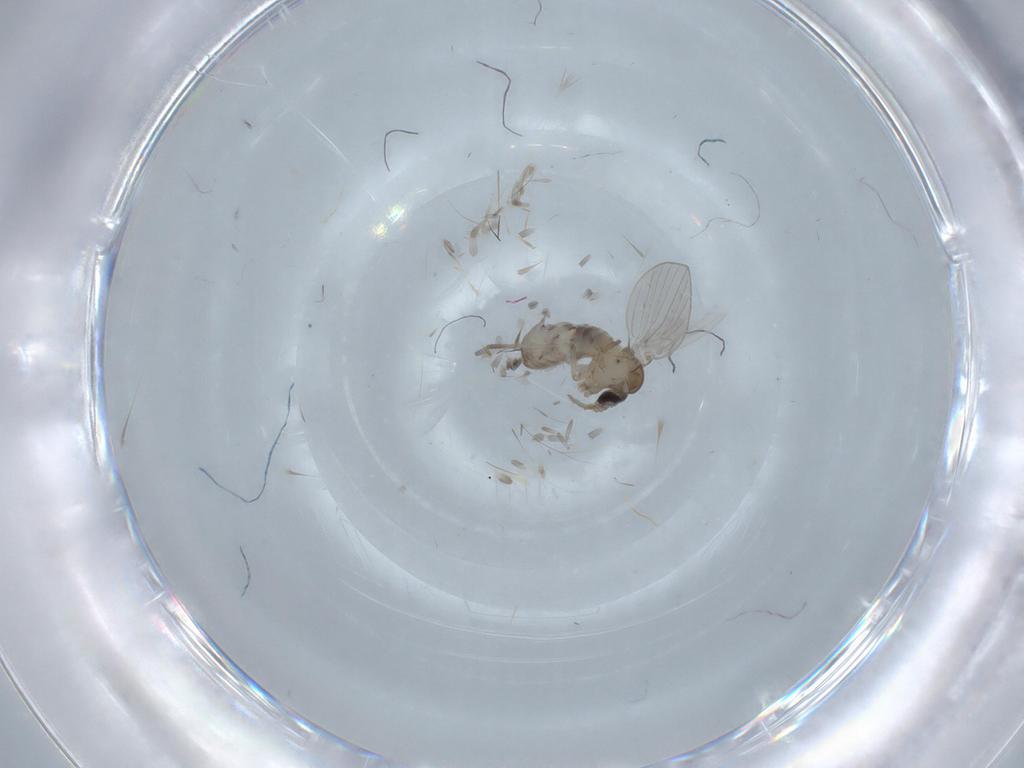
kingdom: Animalia
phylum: Arthropoda
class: Insecta
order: Diptera
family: Psychodidae
